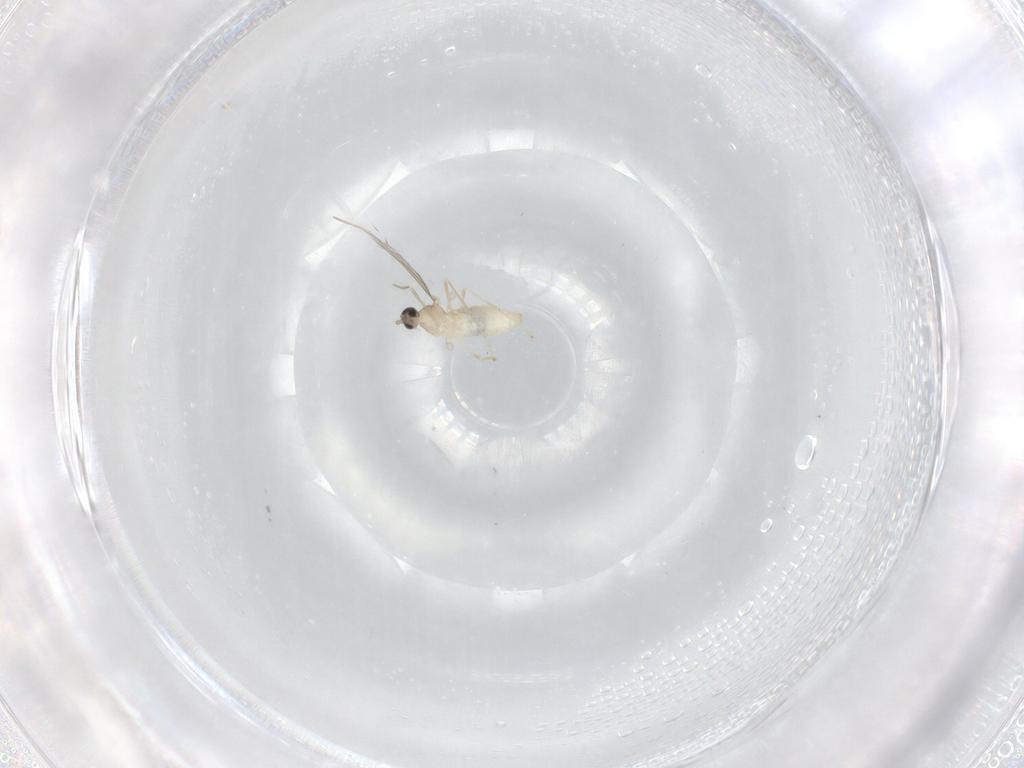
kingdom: Animalia
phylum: Arthropoda
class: Insecta
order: Diptera
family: Cecidomyiidae
